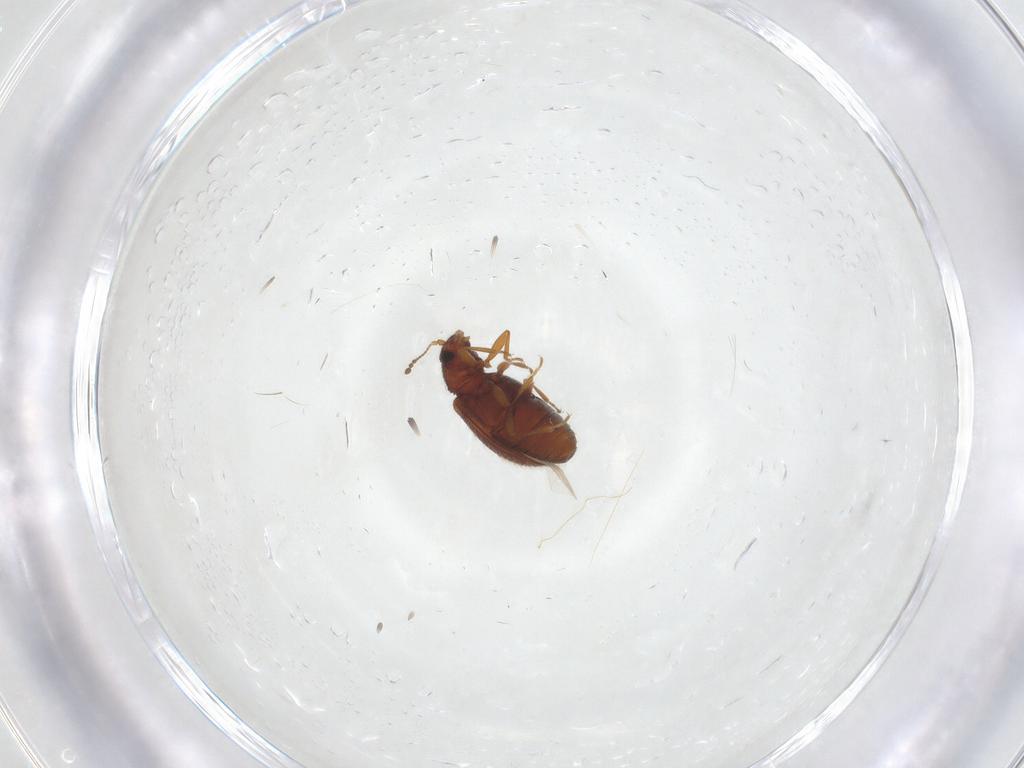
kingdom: Animalia
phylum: Arthropoda
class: Insecta
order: Coleoptera
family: Latridiidae
